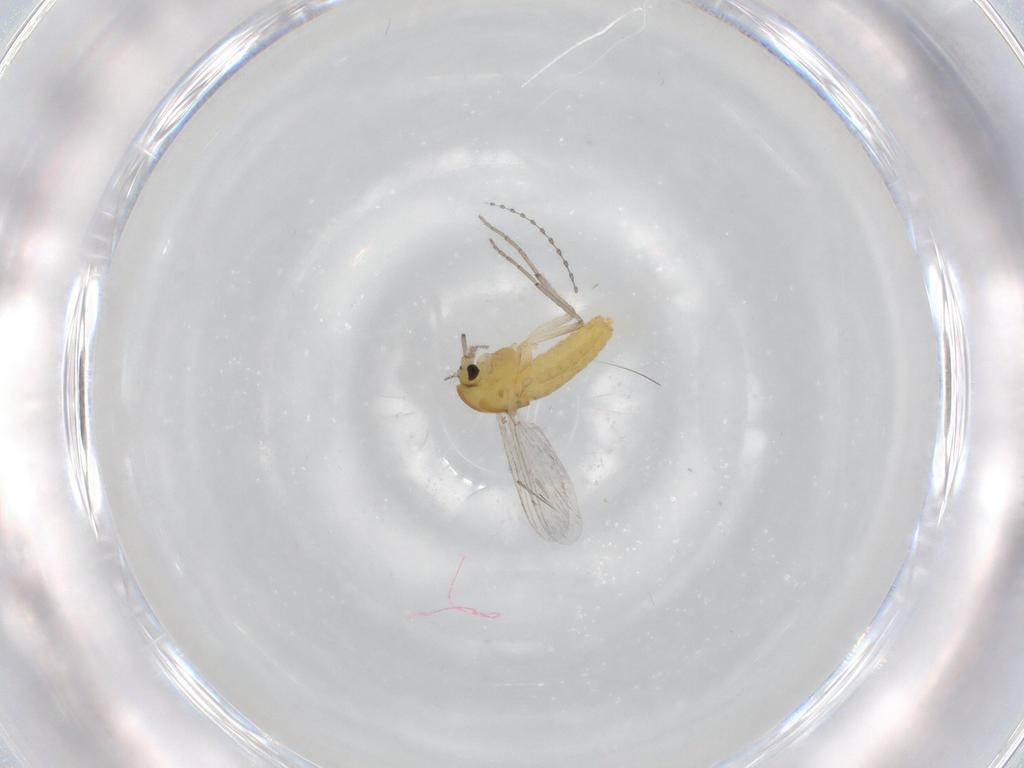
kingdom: Animalia
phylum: Arthropoda
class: Insecta
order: Diptera
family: Chironomidae
